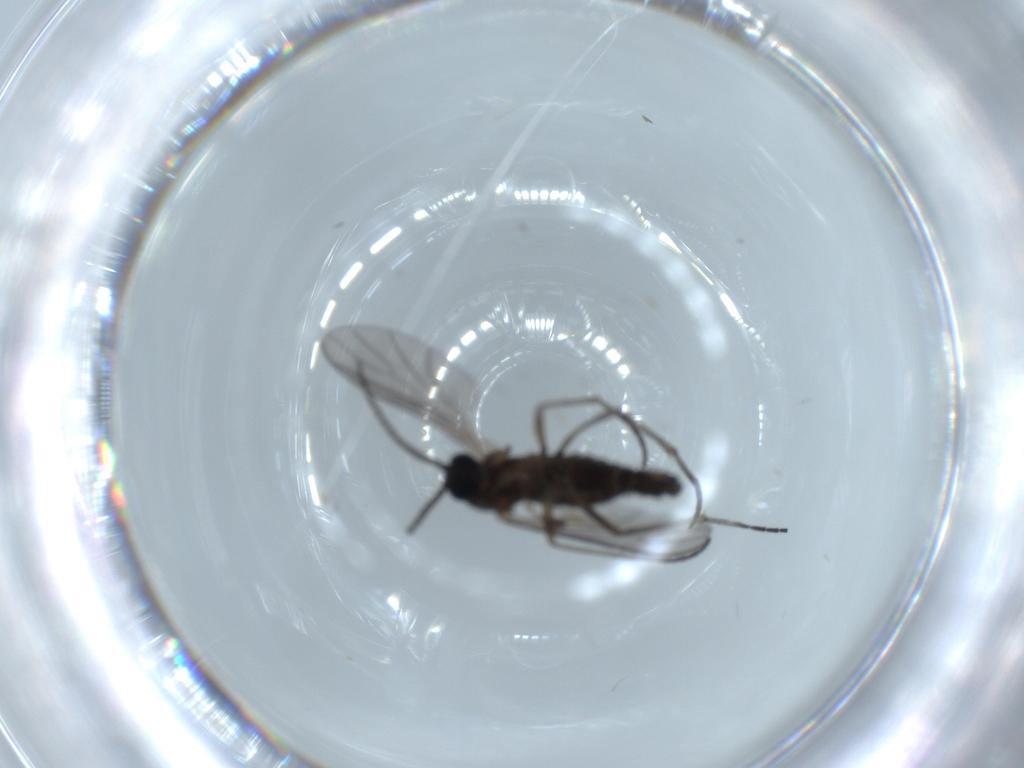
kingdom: Animalia
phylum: Arthropoda
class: Insecta
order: Diptera
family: Sciaridae
